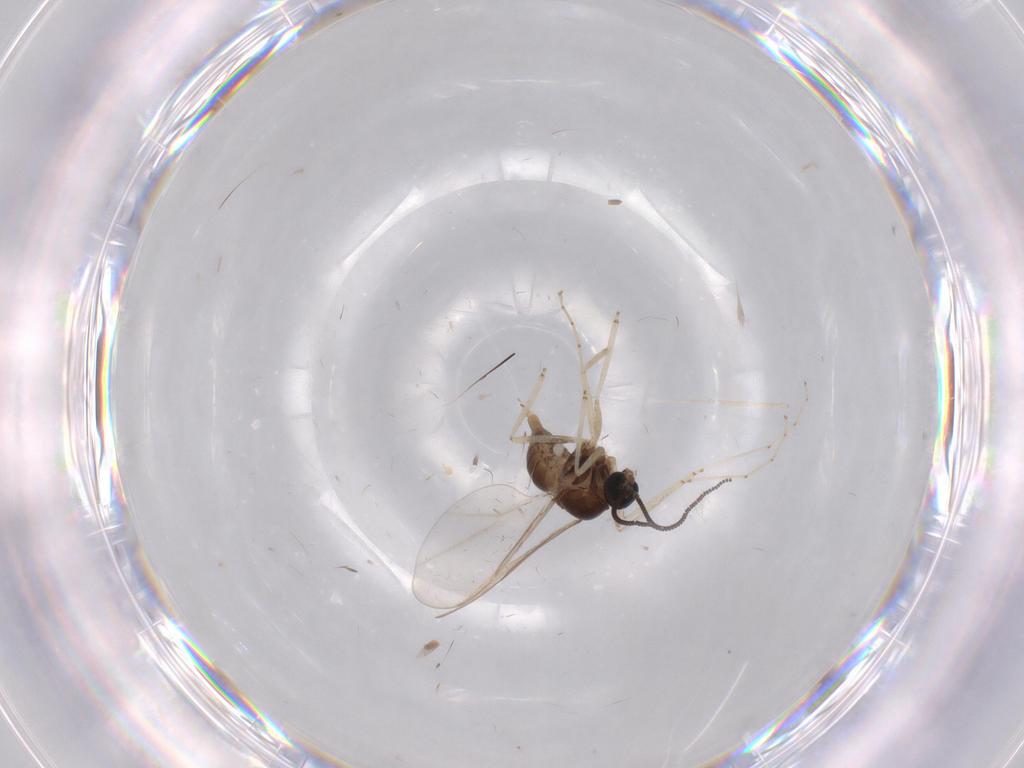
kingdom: Animalia
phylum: Arthropoda
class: Insecta
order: Diptera
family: Cecidomyiidae
